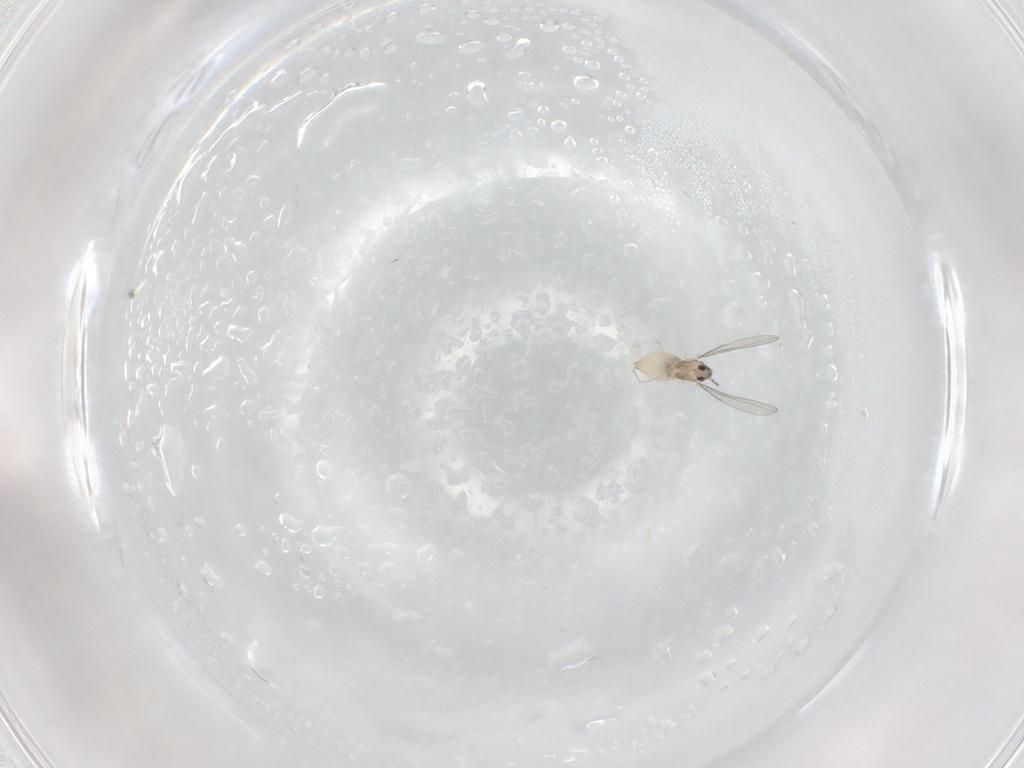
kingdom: Animalia
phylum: Arthropoda
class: Insecta
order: Diptera
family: Cecidomyiidae
